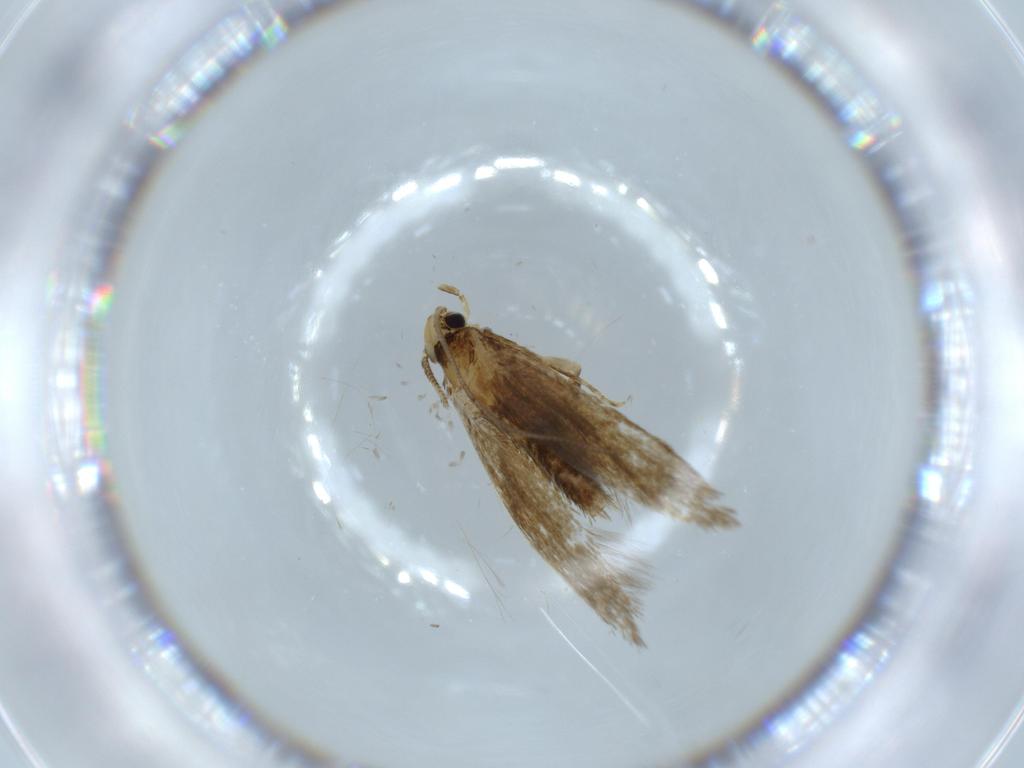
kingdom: Animalia
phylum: Arthropoda
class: Insecta
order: Lepidoptera
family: Tineidae
